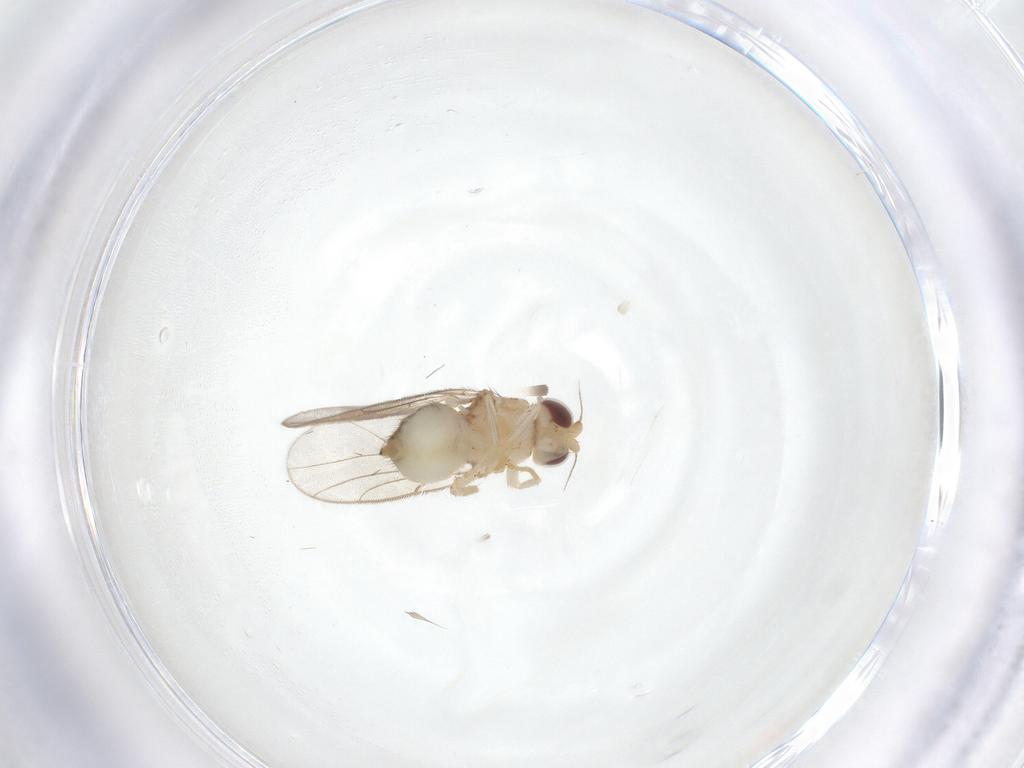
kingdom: Animalia
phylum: Arthropoda
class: Insecta
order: Diptera
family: Chloropidae
